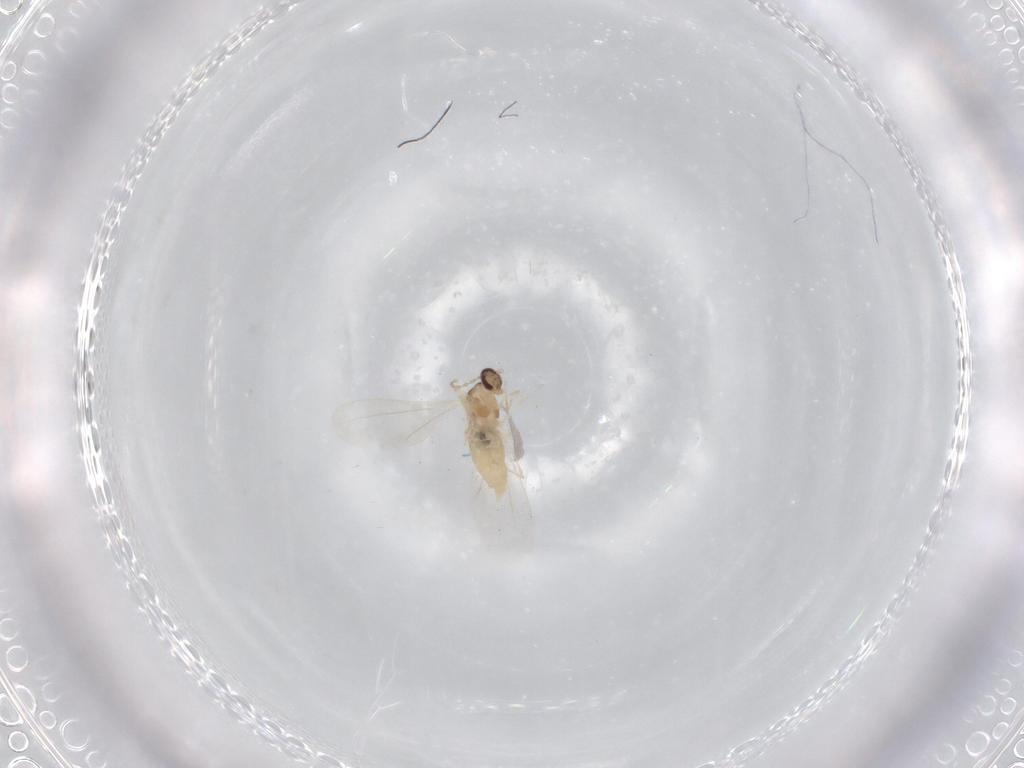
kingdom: Animalia
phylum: Arthropoda
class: Insecta
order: Diptera
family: Cecidomyiidae
